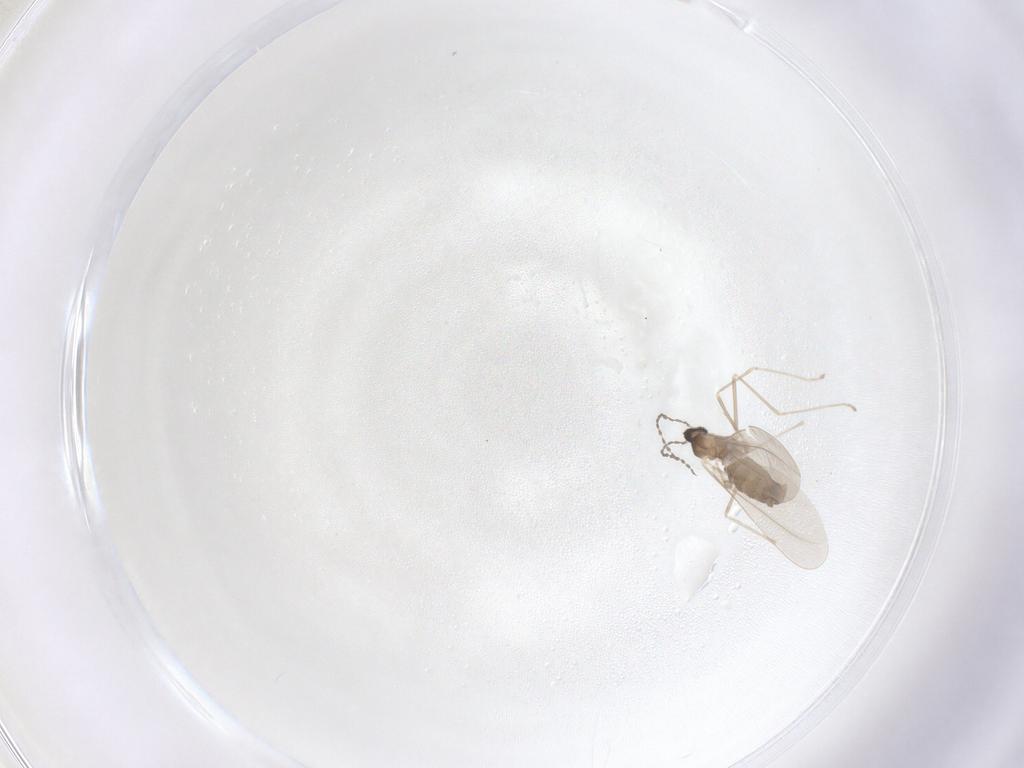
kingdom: Animalia
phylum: Arthropoda
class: Insecta
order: Diptera
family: Cecidomyiidae
